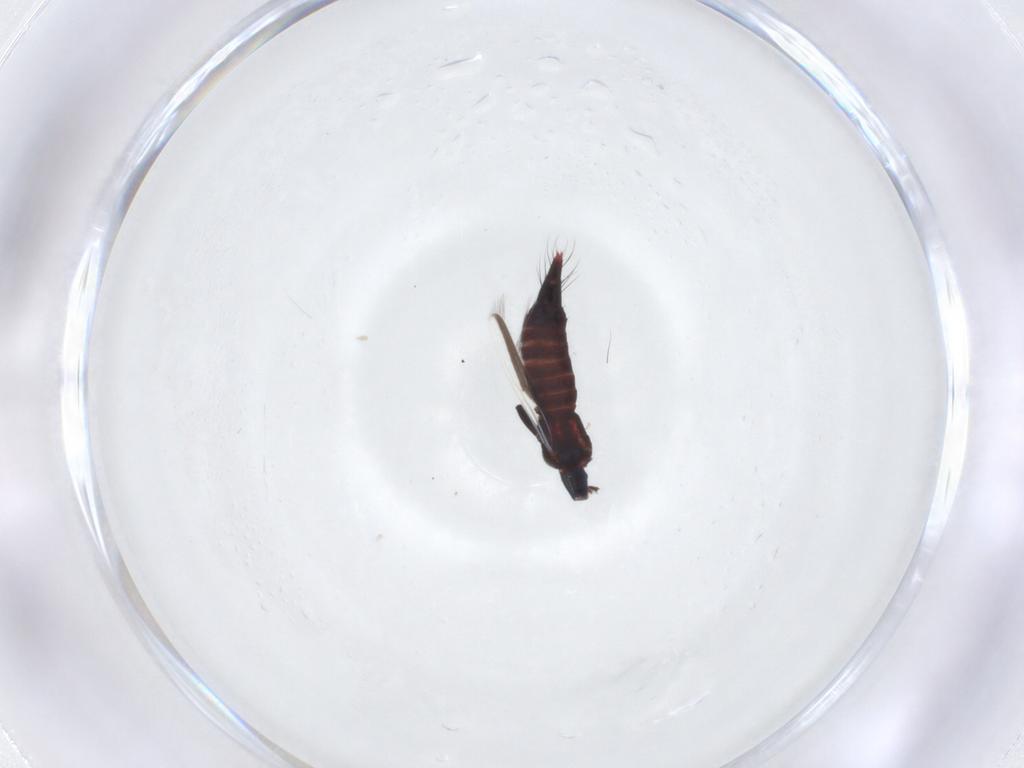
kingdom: Animalia
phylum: Arthropoda
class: Insecta
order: Thysanoptera
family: Aeolothripidae
